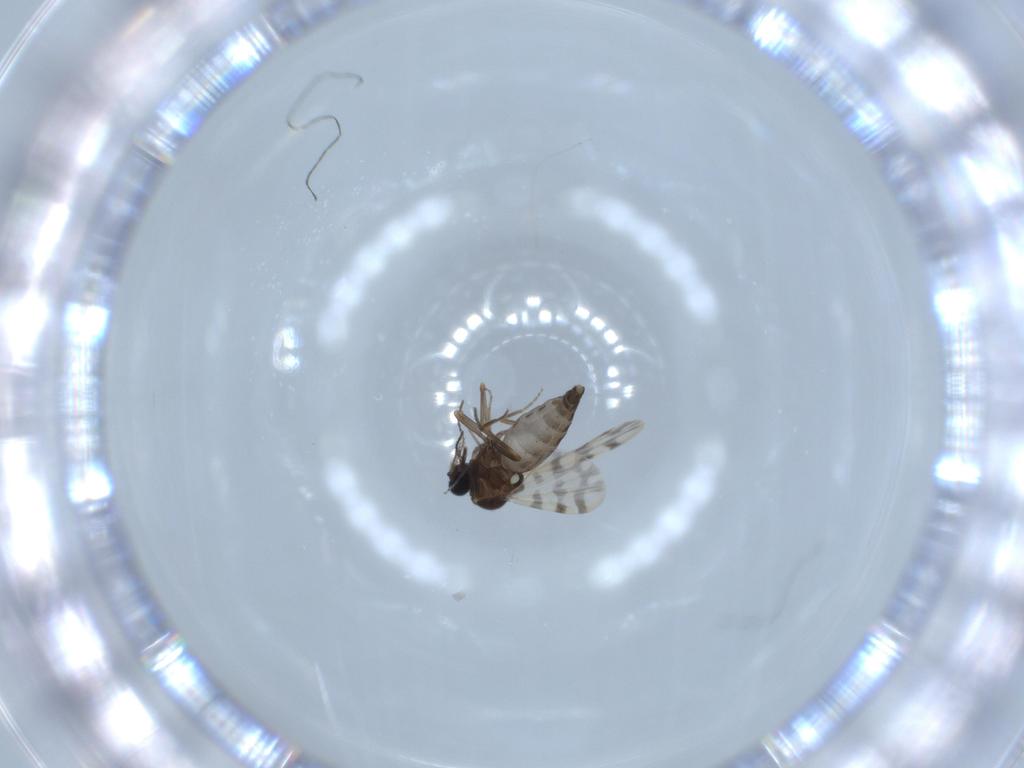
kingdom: Animalia
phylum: Arthropoda
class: Insecta
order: Diptera
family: Ceratopogonidae
